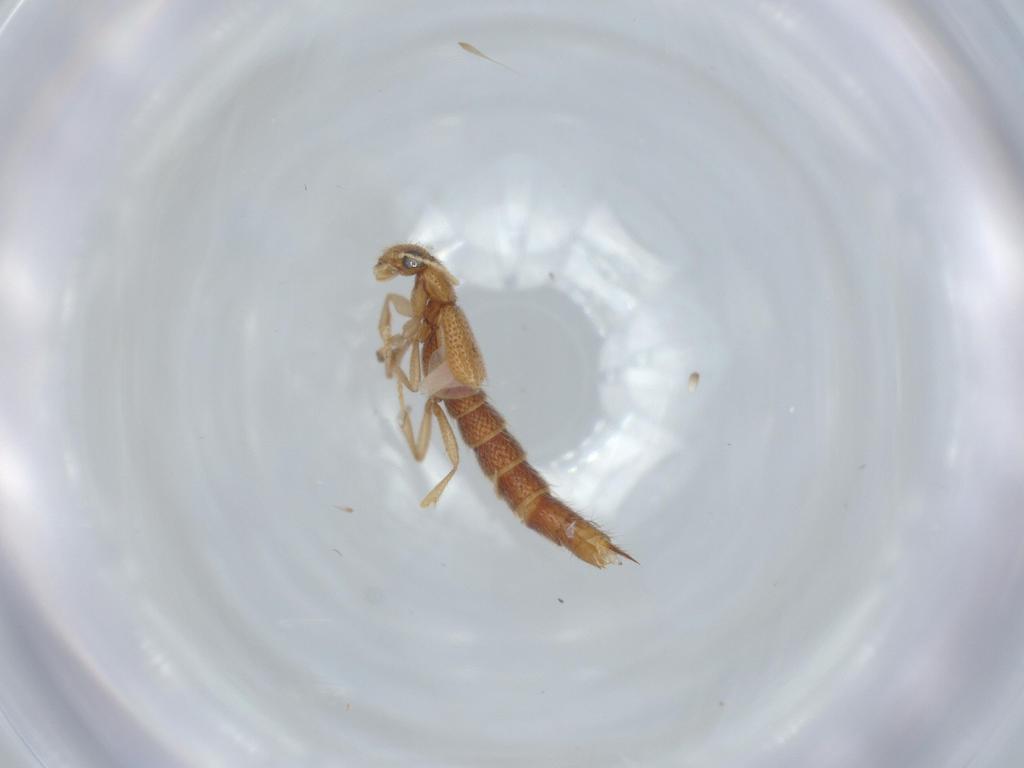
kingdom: Animalia
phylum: Arthropoda
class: Insecta
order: Coleoptera
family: Staphylinidae
